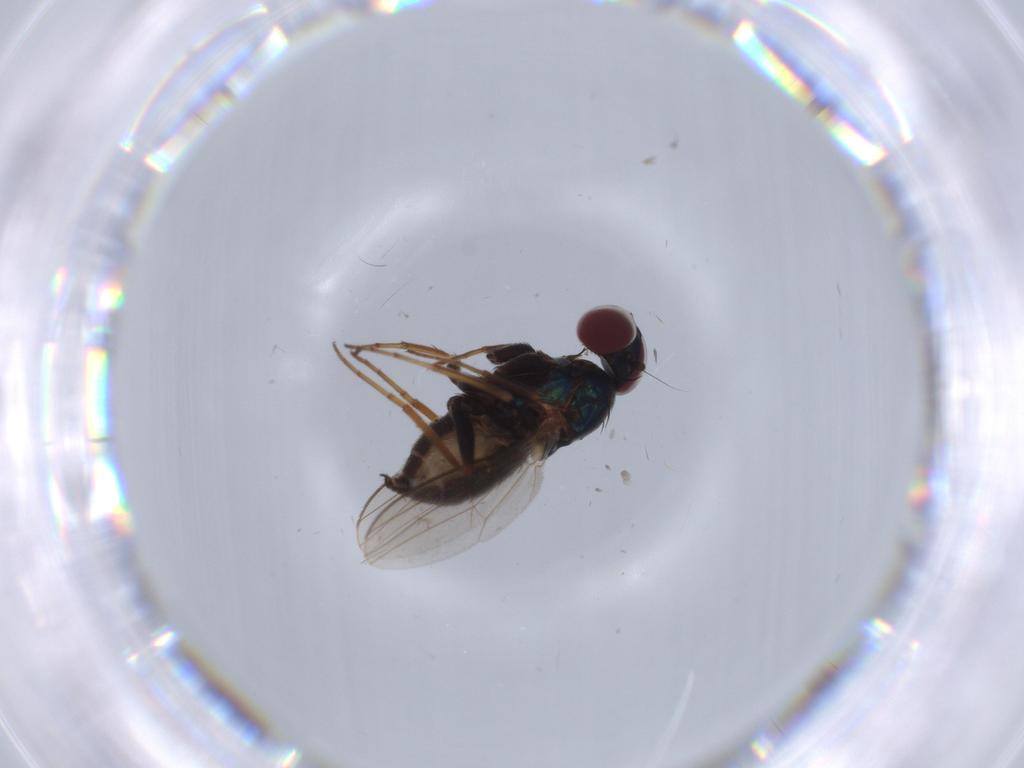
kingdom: Animalia
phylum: Arthropoda
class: Insecta
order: Diptera
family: Dolichopodidae
